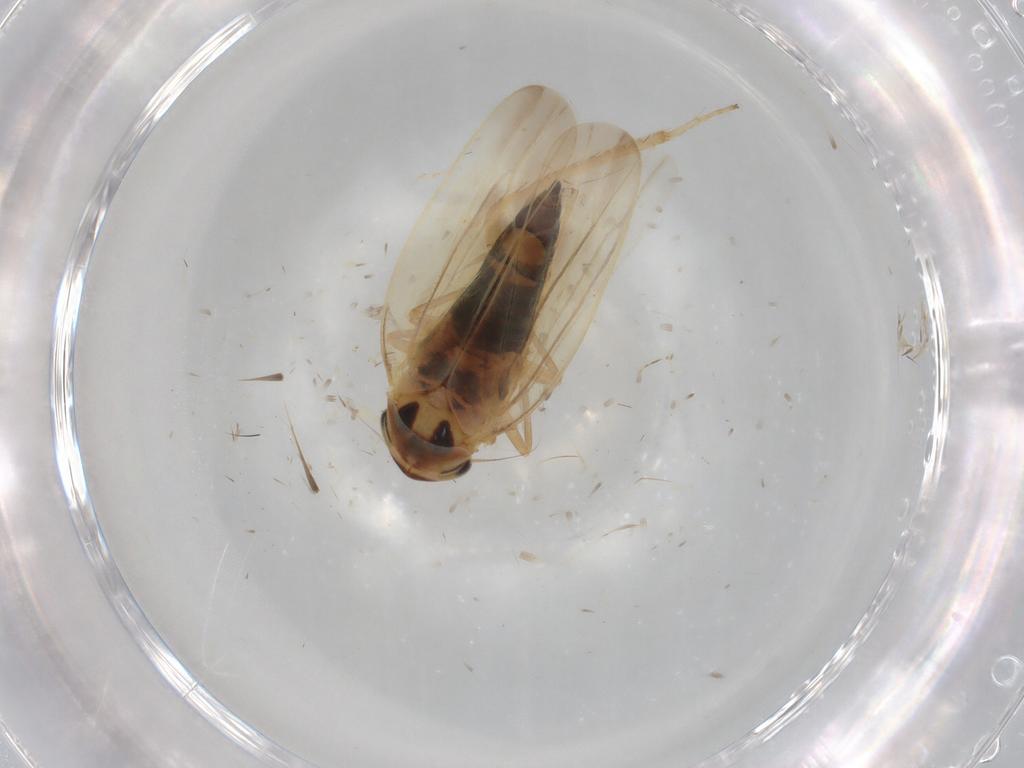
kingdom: Animalia
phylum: Arthropoda
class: Insecta
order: Hemiptera
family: Cicadellidae
